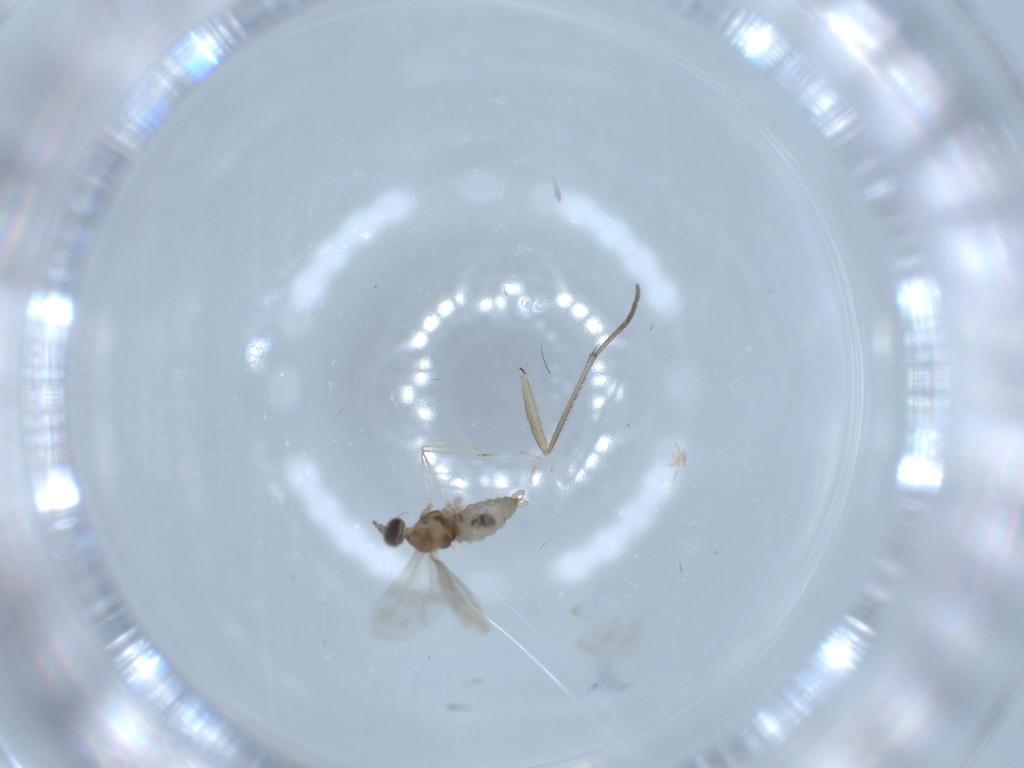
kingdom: Animalia
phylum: Arthropoda
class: Insecta
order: Diptera
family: Cecidomyiidae
